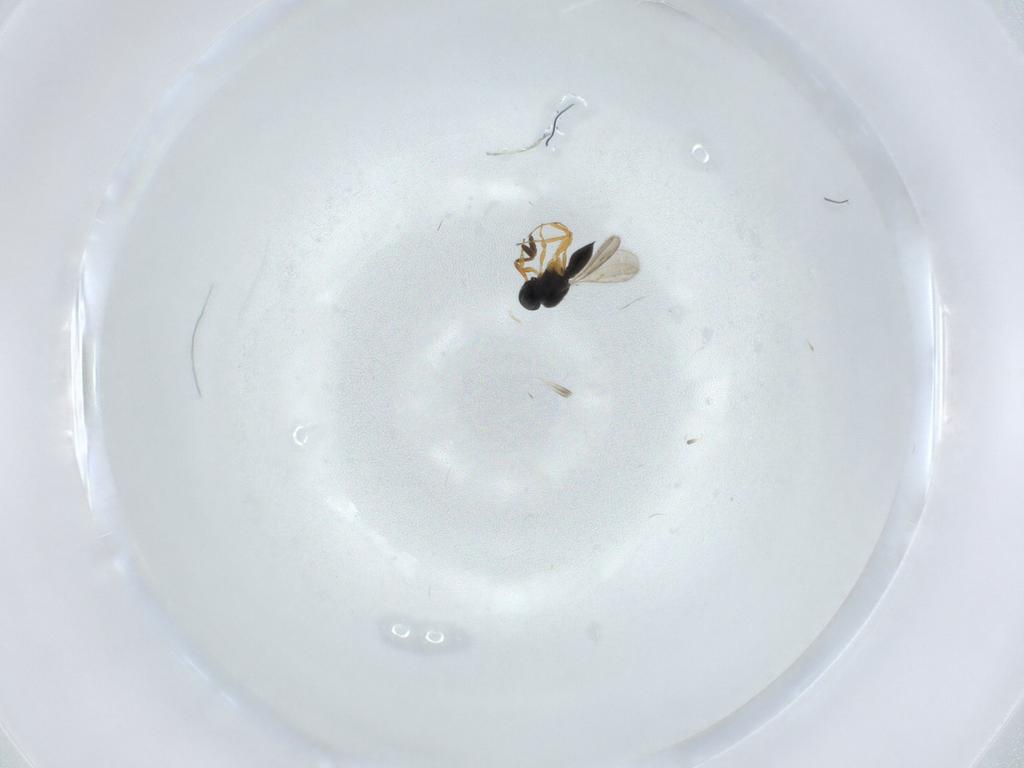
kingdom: Animalia
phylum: Arthropoda
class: Insecta
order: Hymenoptera
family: Scelionidae
